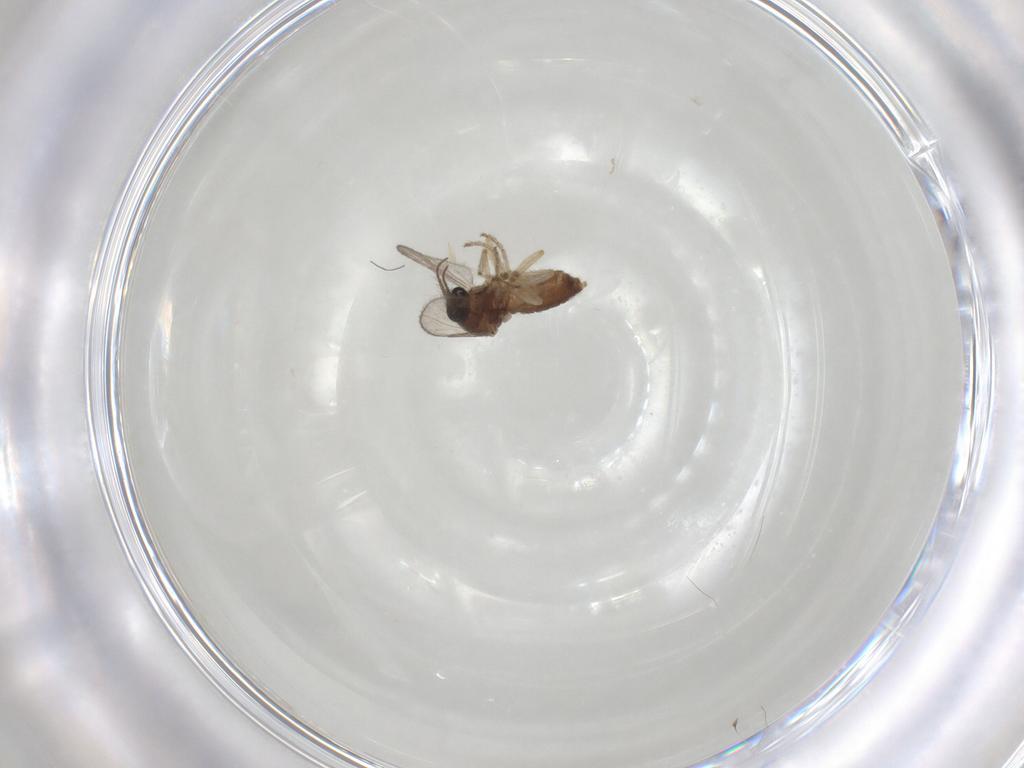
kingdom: Animalia
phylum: Arthropoda
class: Insecta
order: Diptera
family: Ceratopogonidae
